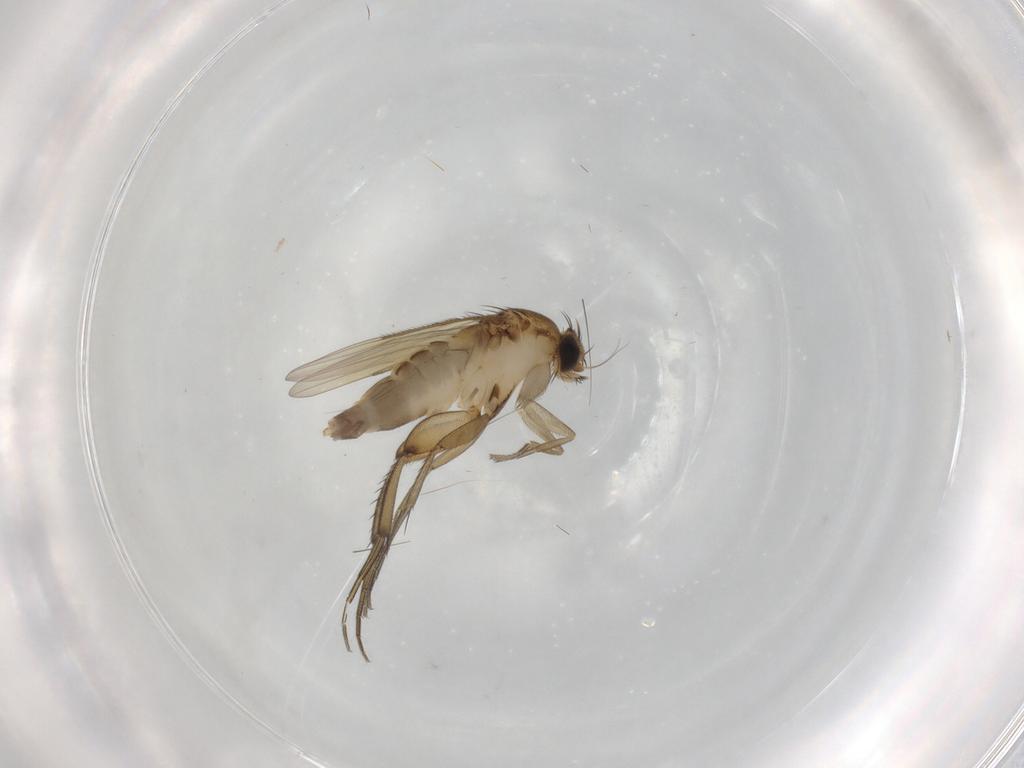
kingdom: Animalia
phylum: Arthropoda
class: Insecta
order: Diptera
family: Phoridae
